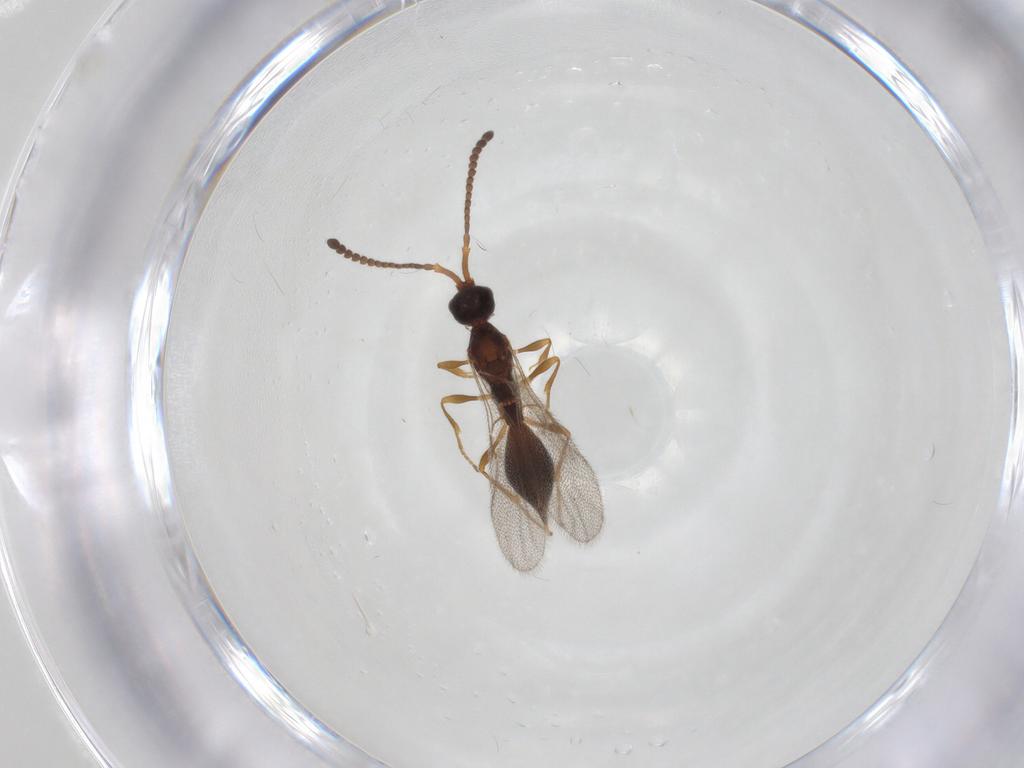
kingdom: Animalia
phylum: Arthropoda
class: Insecta
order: Hymenoptera
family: Diapriidae
